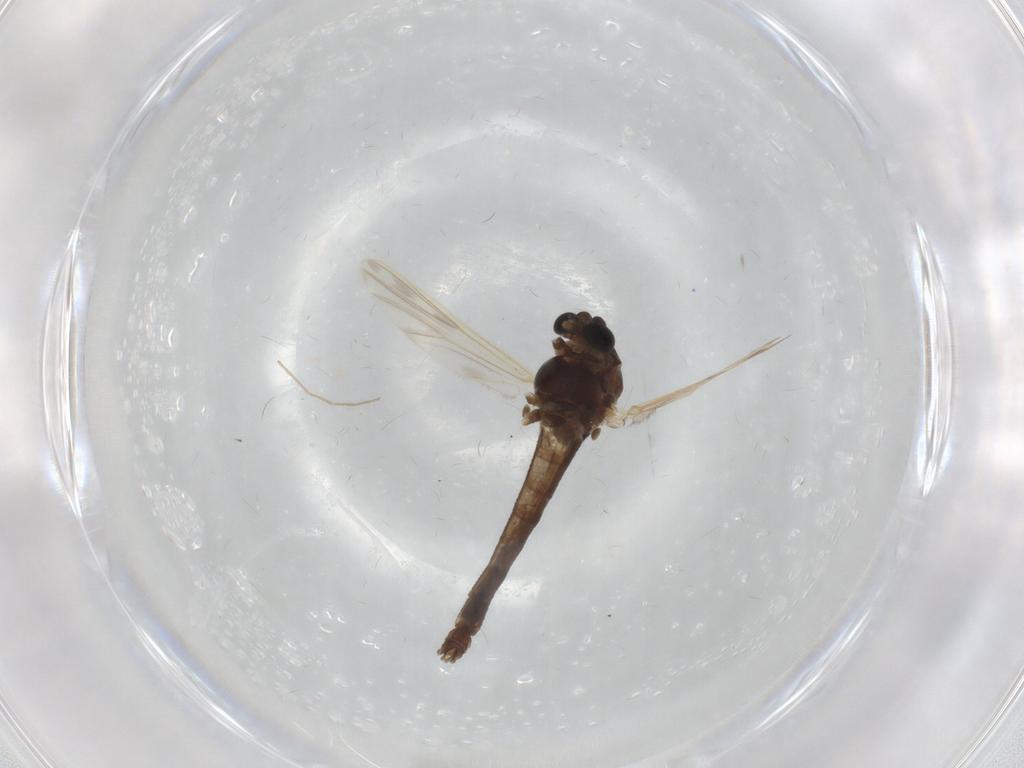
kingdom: Animalia
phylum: Arthropoda
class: Insecta
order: Diptera
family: Chironomidae
